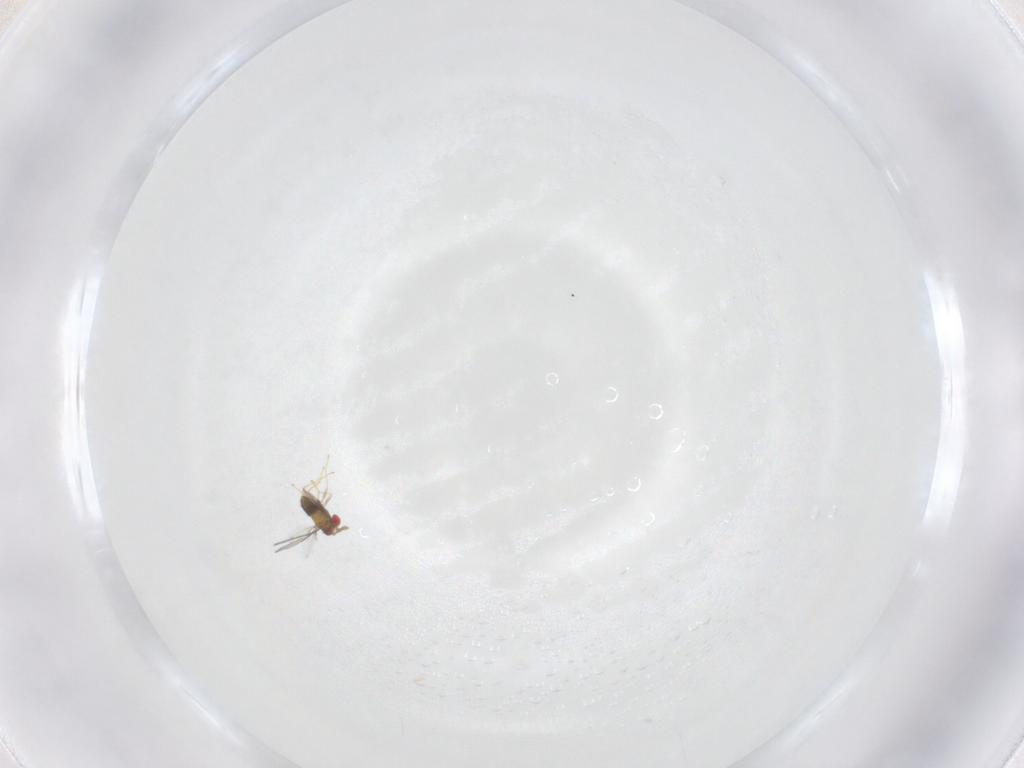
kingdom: Animalia
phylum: Arthropoda
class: Insecta
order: Hymenoptera
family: Trichogrammatidae
